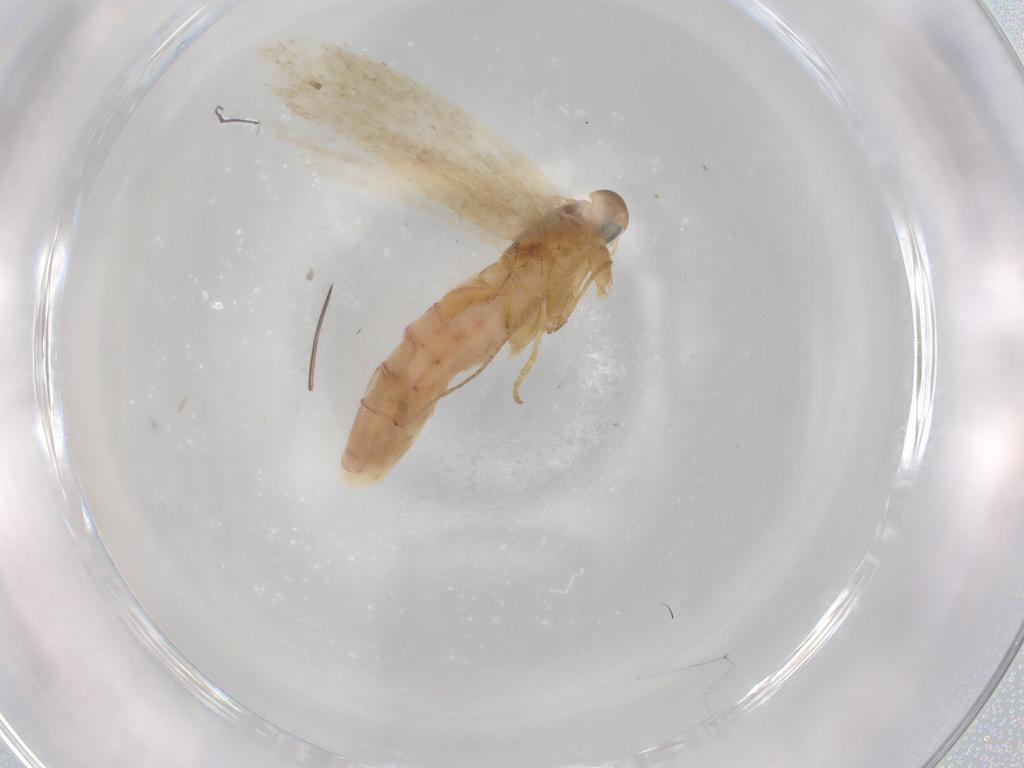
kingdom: Animalia
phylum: Arthropoda
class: Insecta
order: Lepidoptera
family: Gelechiidae
